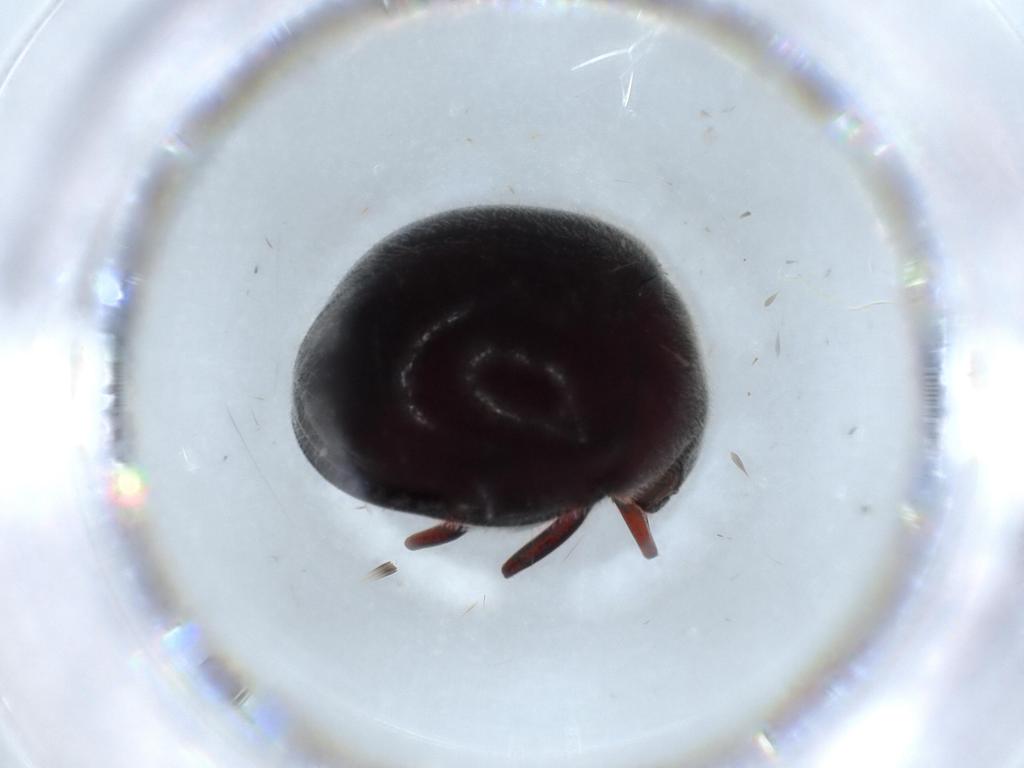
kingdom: Animalia
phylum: Arthropoda
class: Insecta
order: Coleoptera
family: Ptinidae
